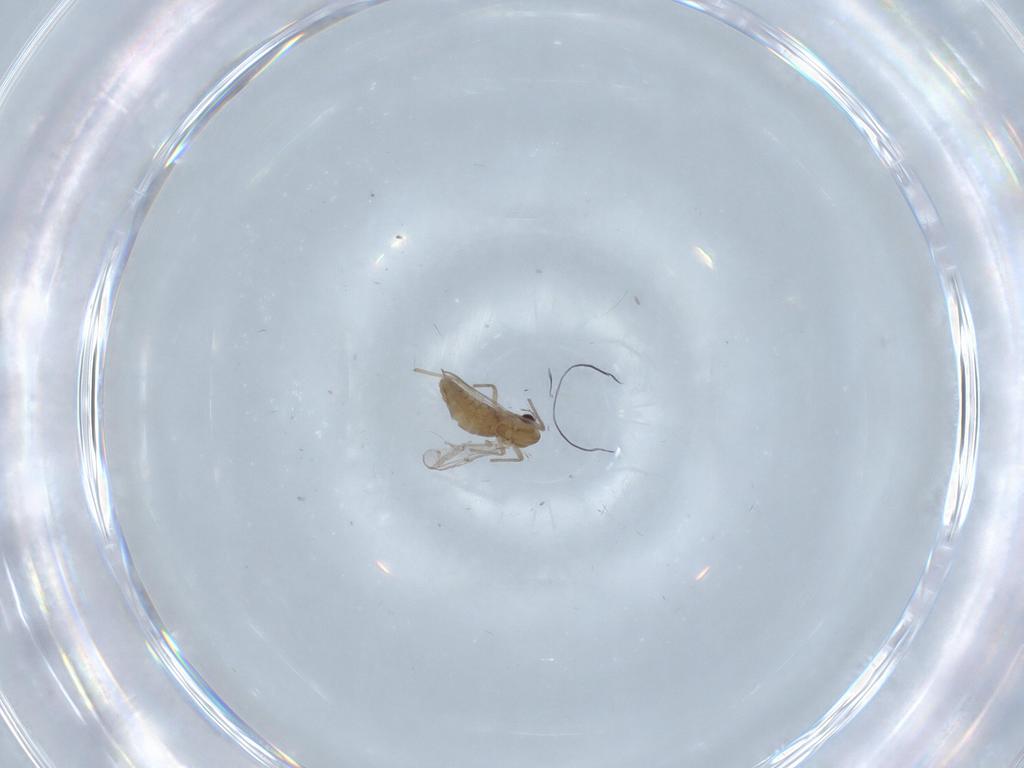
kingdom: Animalia
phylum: Arthropoda
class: Insecta
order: Diptera
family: Chironomidae
